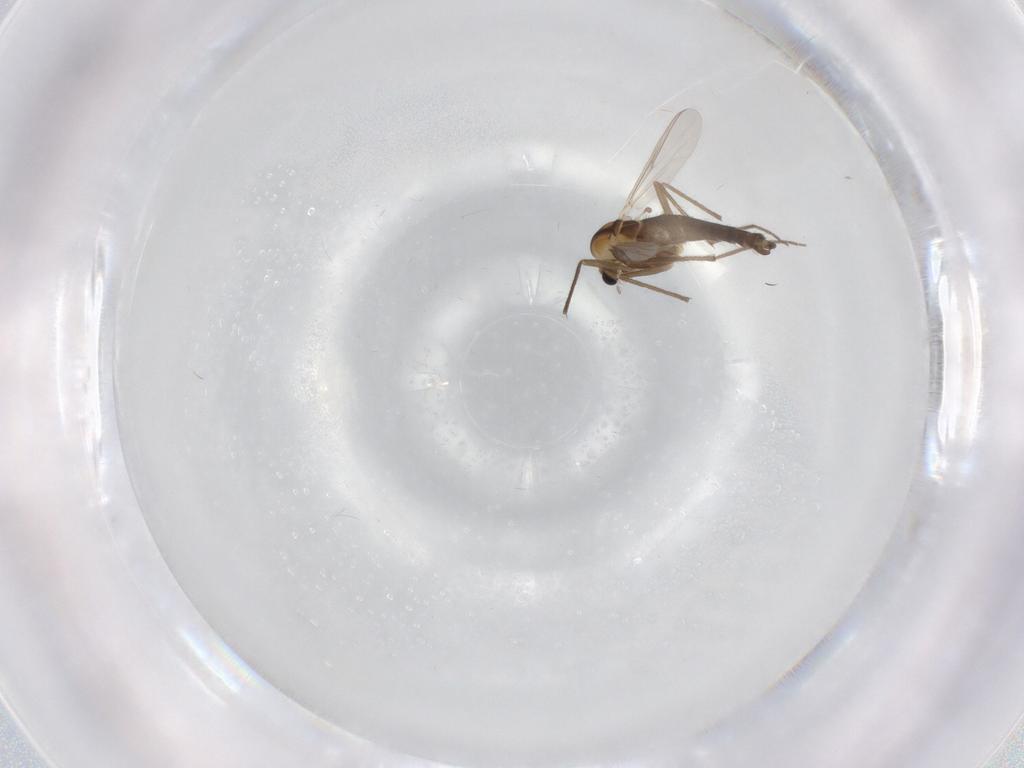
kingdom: Animalia
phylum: Arthropoda
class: Insecta
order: Diptera
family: Chironomidae
